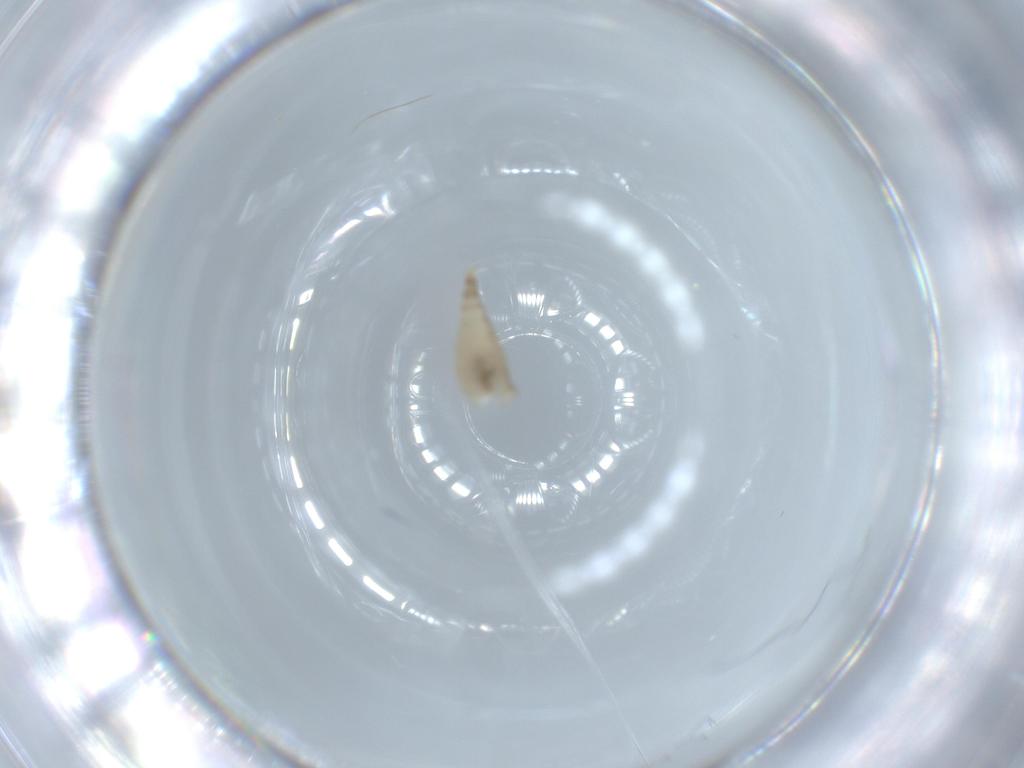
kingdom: Animalia
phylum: Arthropoda
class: Insecta
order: Diptera
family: Cecidomyiidae
